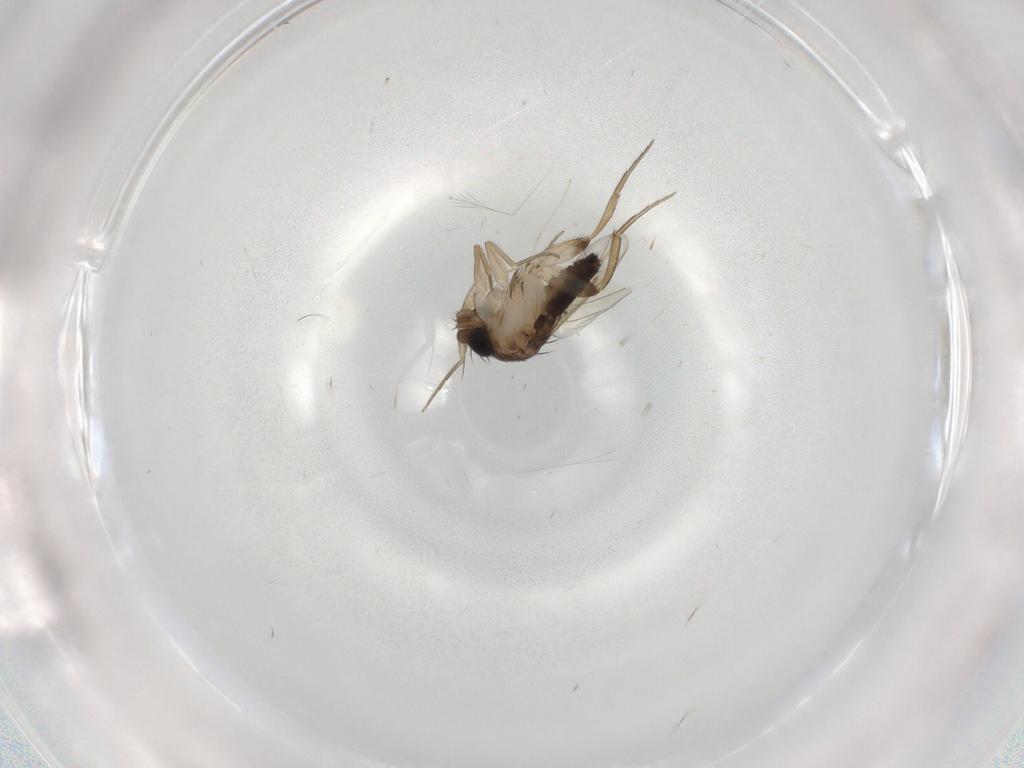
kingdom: Animalia
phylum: Arthropoda
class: Insecta
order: Diptera
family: Phoridae
